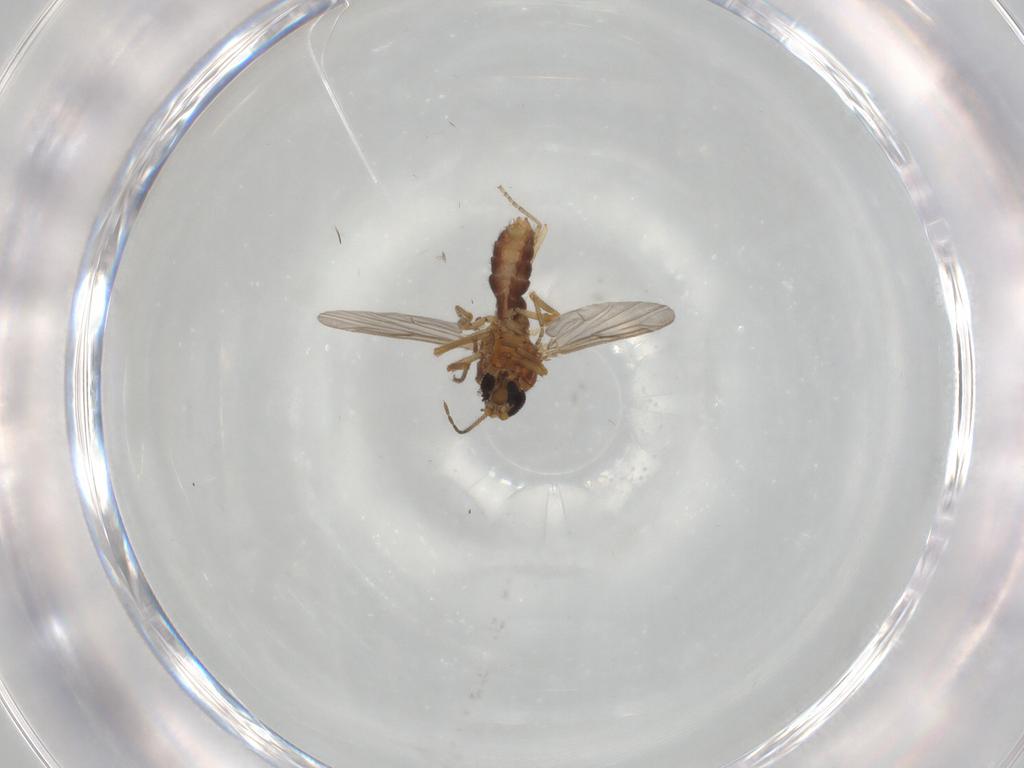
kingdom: Animalia
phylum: Arthropoda
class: Insecta
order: Diptera
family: Ceratopogonidae
